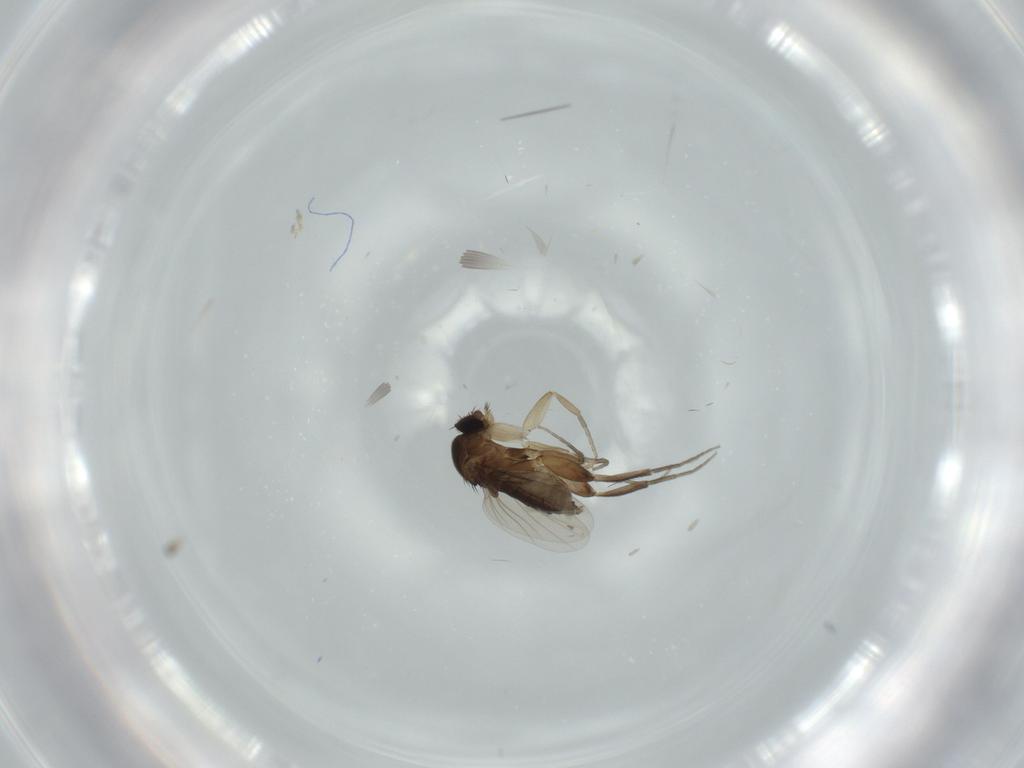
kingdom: Animalia
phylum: Arthropoda
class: Insecta
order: Diptera
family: Phoridae
